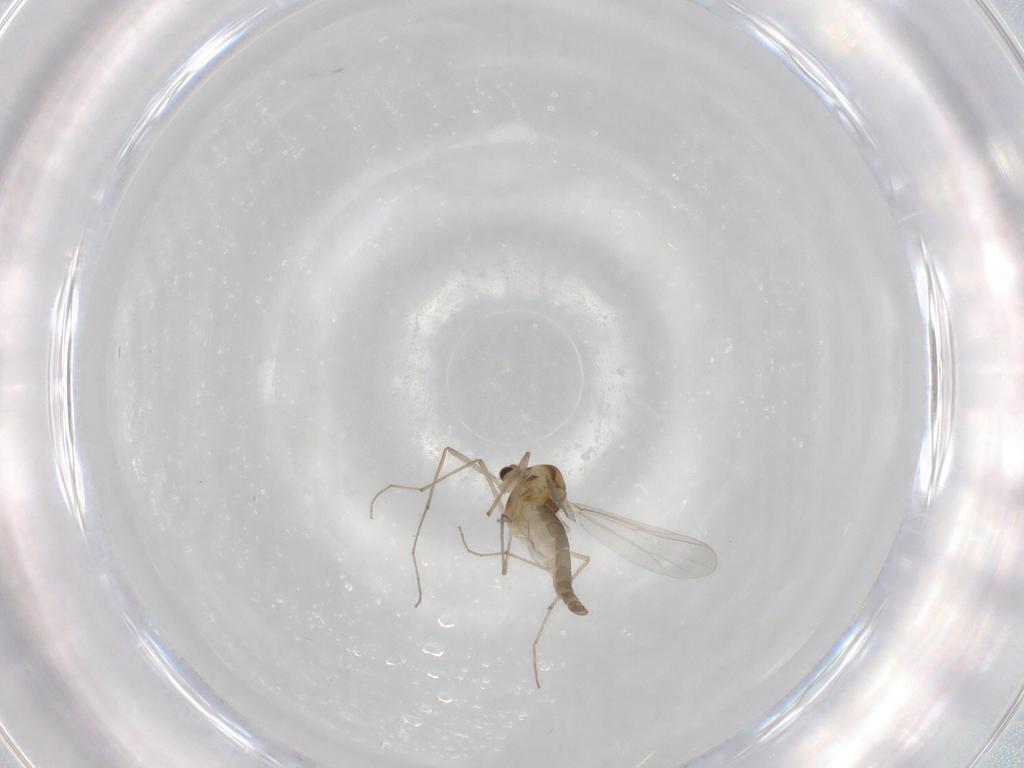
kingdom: Animalia
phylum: Arthropoda
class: Insecta
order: Diptera
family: Chironomidae
